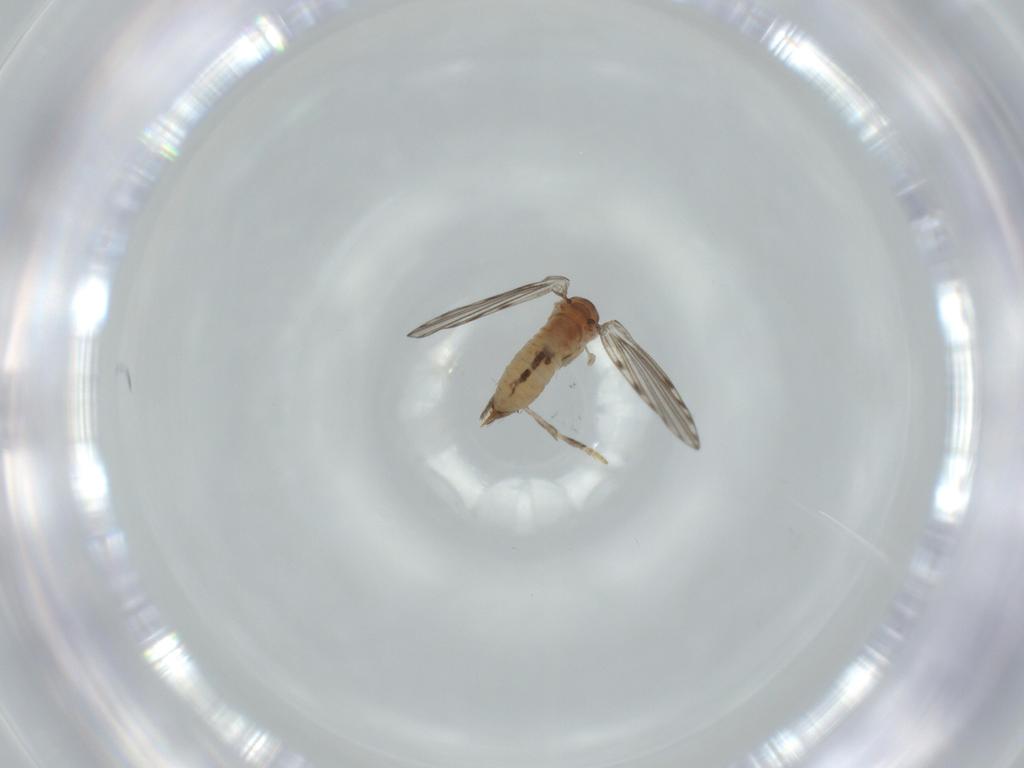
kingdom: Animalia
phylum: Arthropoda
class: Insecta
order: Diptera
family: Psychodidae
